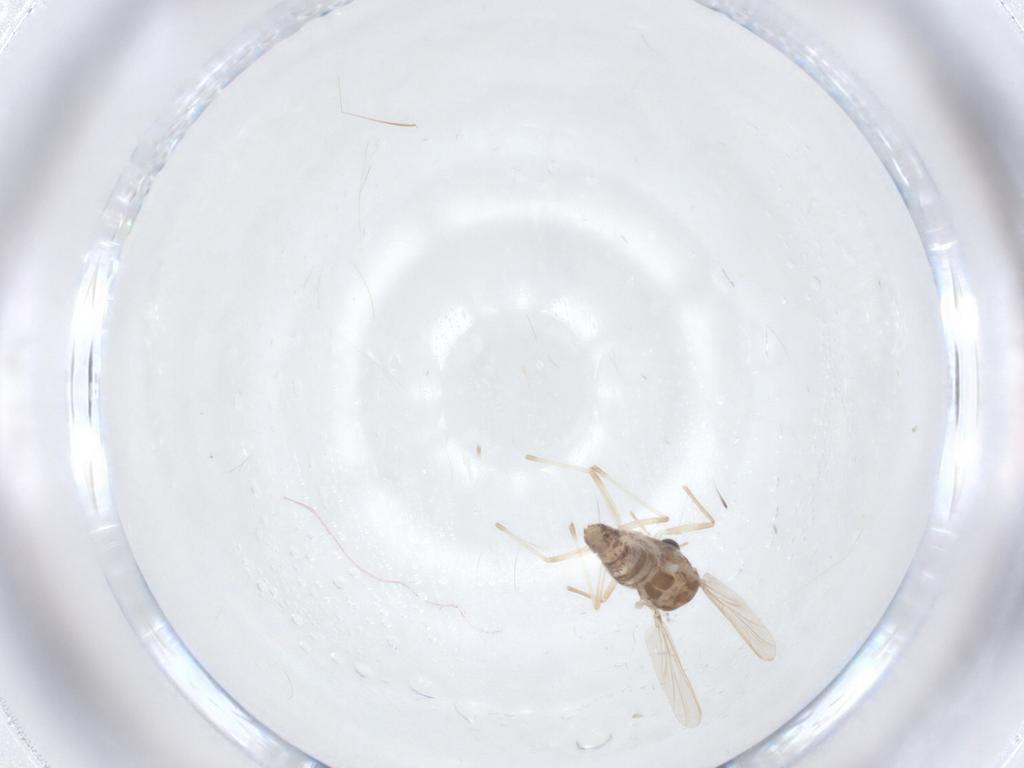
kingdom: Animalia
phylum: Arthropoda
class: Insecta
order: Diptera
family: Chironomidae
